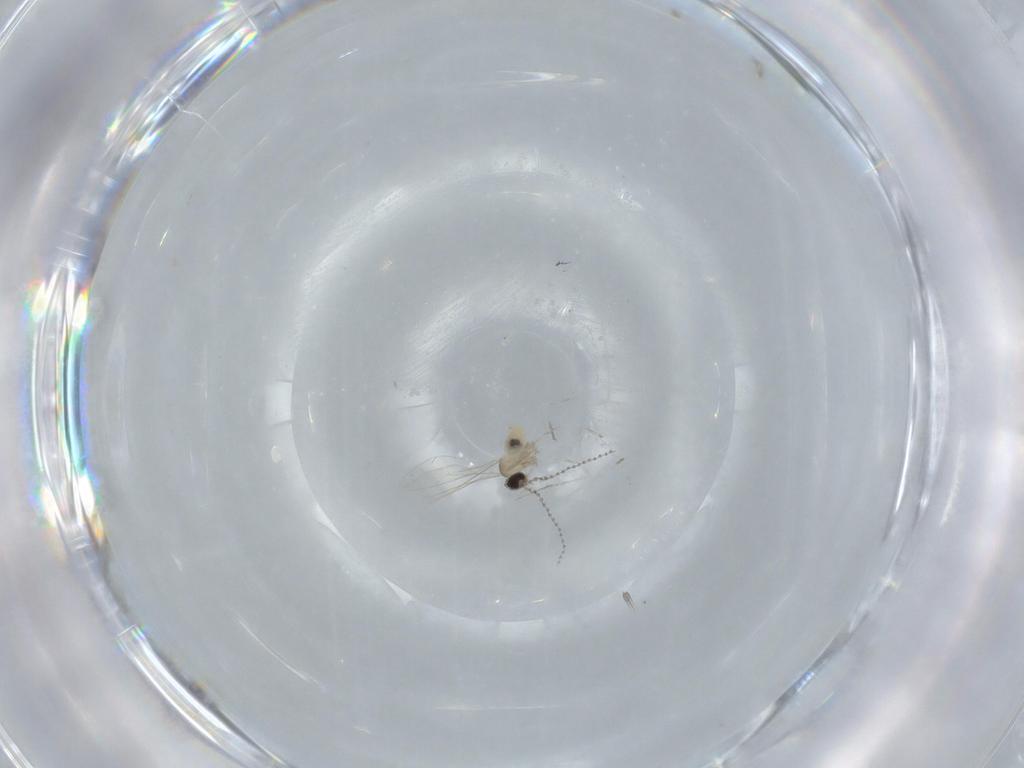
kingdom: Animalia
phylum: Arthropoda
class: Insecta
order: Diptera
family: Cecidomyiidae
